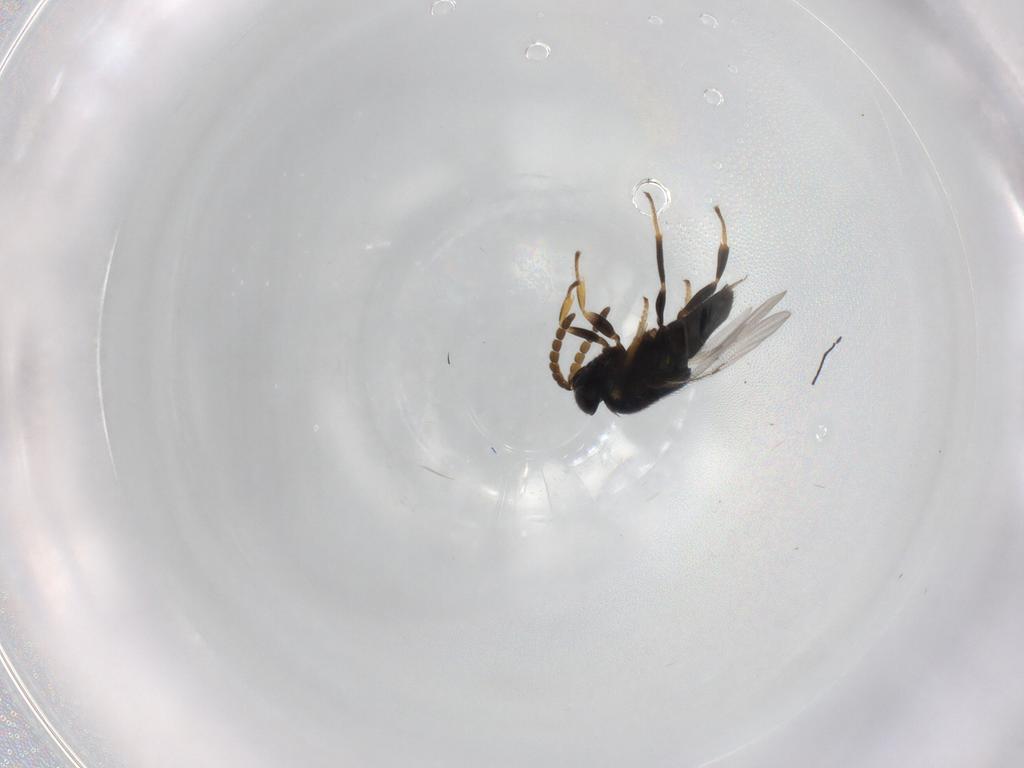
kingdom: Animalia
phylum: Arthropoda
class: Insecta
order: Hymenoptera
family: Encyrtidae
